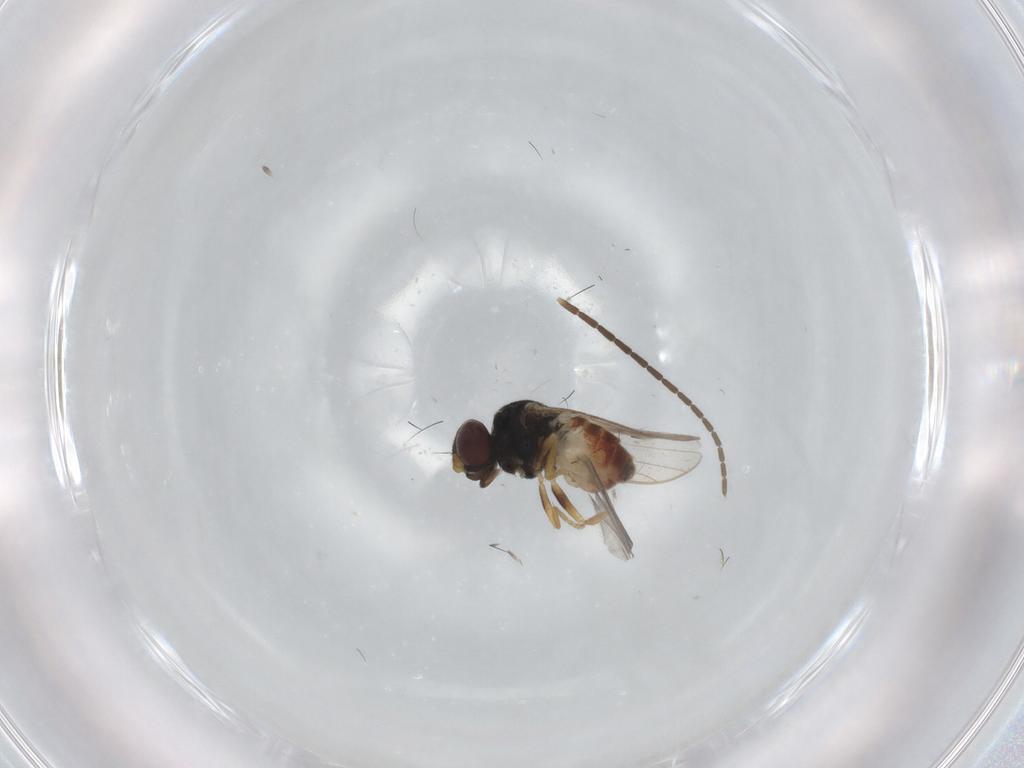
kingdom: Animalia
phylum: Arthropoda
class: Insecta
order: Diptera
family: Chloropidae
